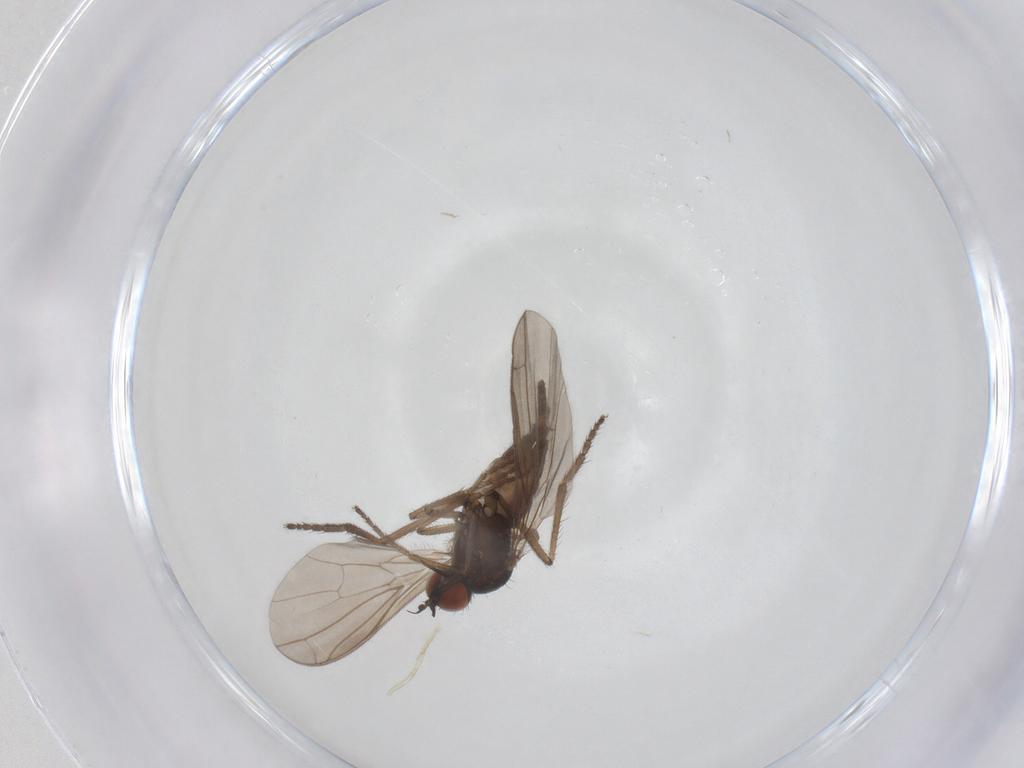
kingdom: Animalia
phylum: Arthropoda
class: Insecta
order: Diptera
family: Empididae
